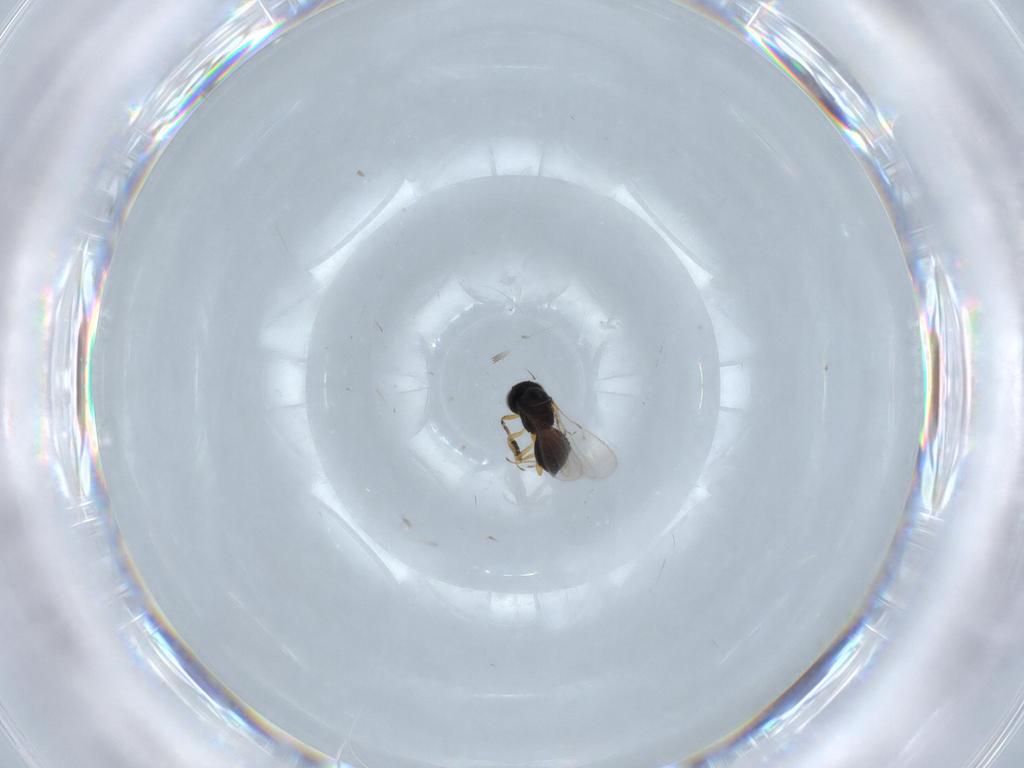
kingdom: Animalia
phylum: Arthropoda
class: Insecta
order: Hymenoptera
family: Scelionidae
